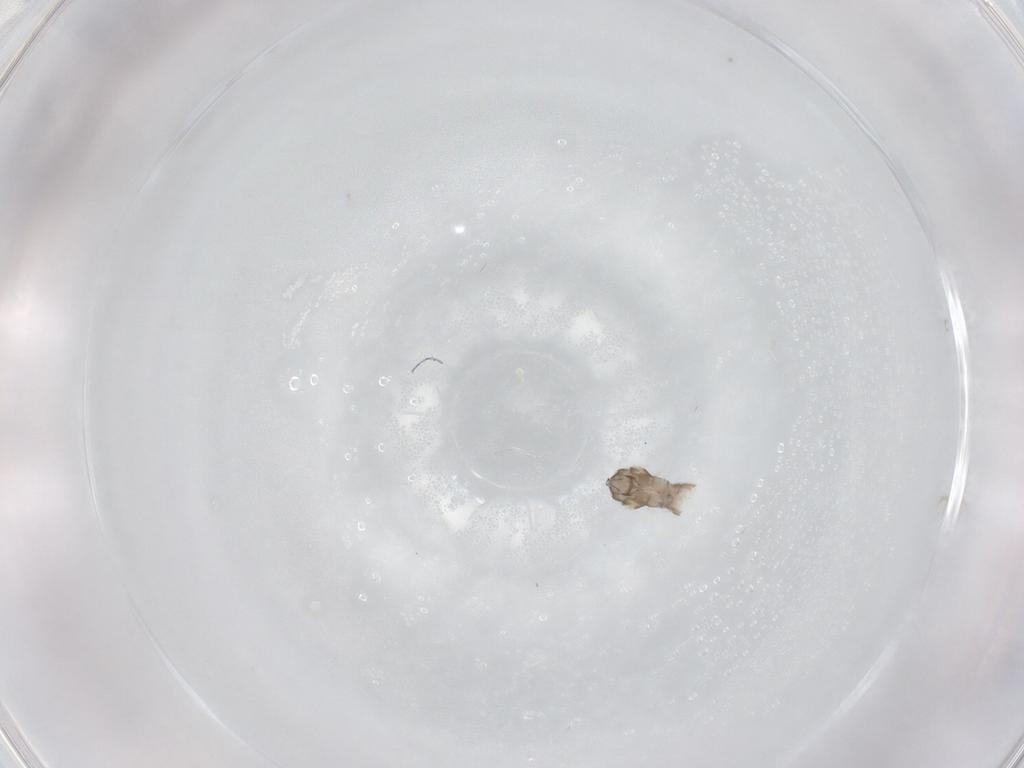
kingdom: Animalia
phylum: Arthropoda
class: Insecta
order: Diptera
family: Cecidomyiidae
